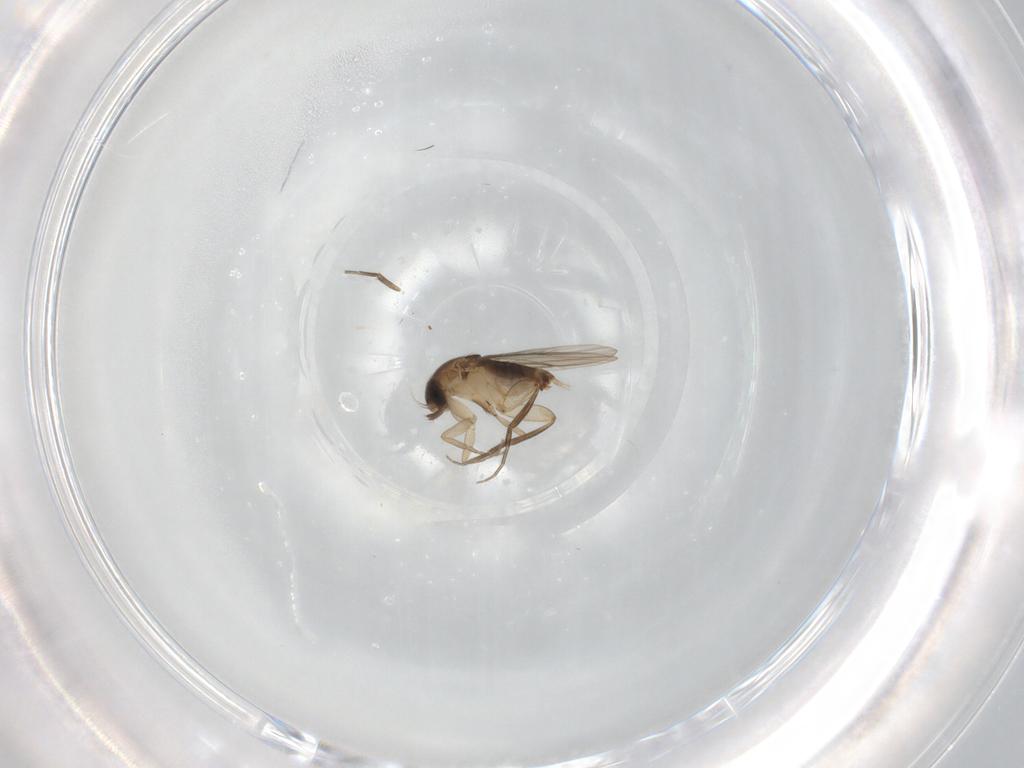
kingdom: Animalia
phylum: Arthropoda
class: Insecta
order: Diptera
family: Phoridae
